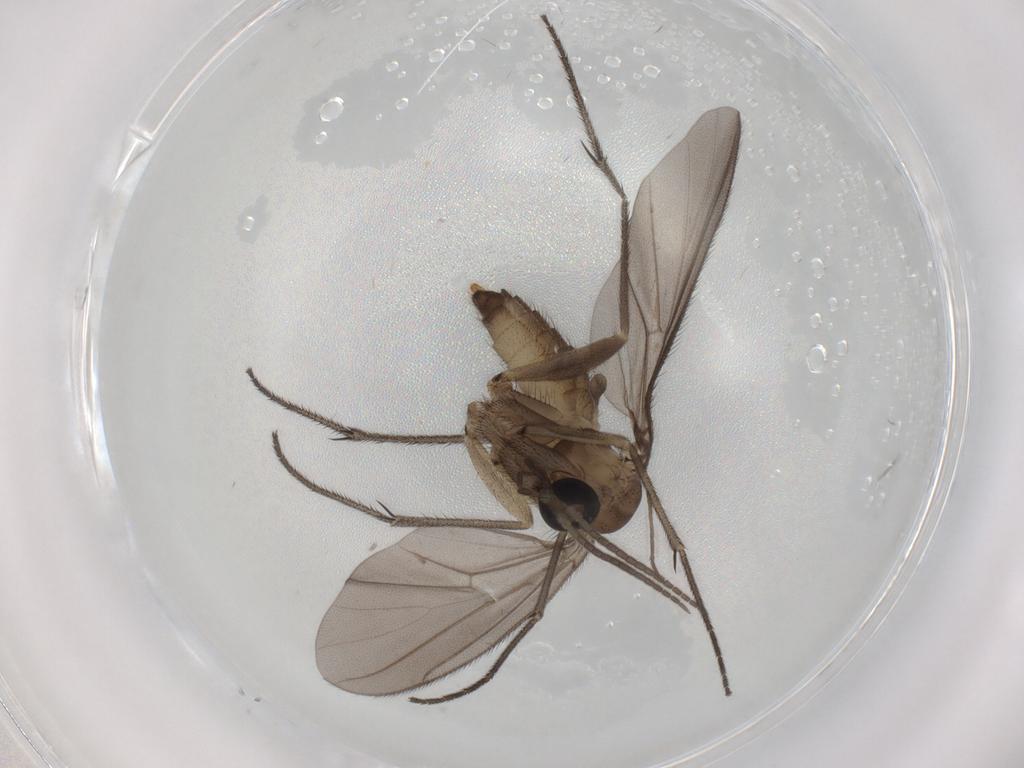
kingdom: Animalia
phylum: Arthropoda
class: Insecta
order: Diptera
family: Diadocidiidae
